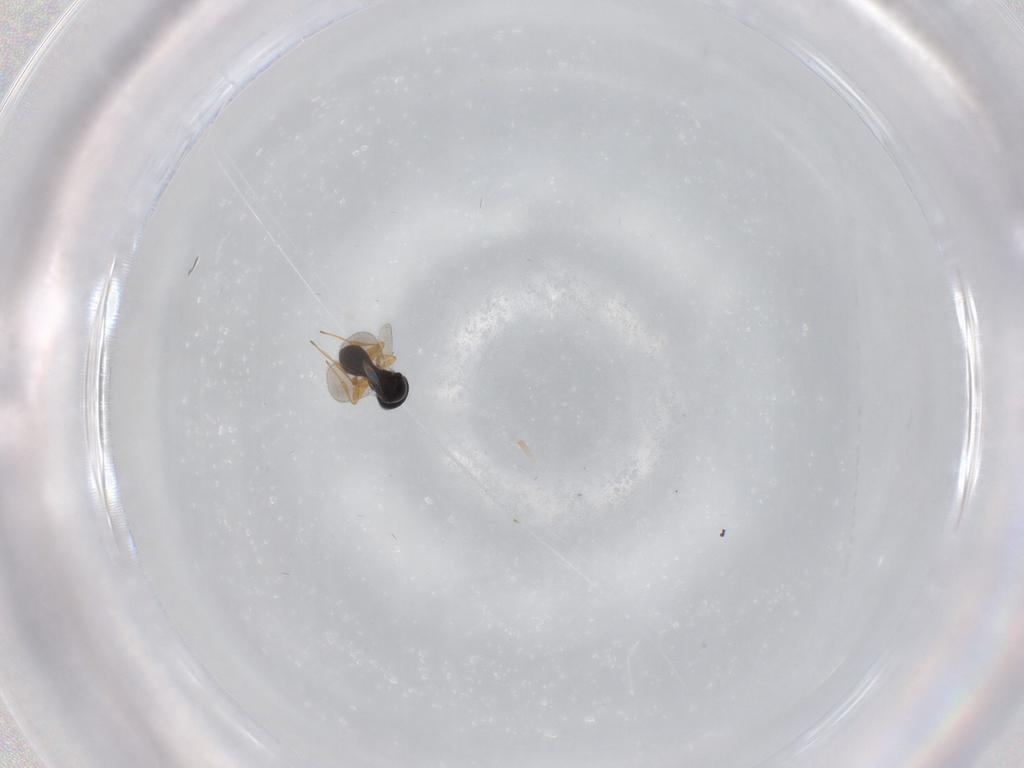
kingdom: Animalia
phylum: Arthropoda
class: Insecta
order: Hymenoptera
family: Platygastridae
